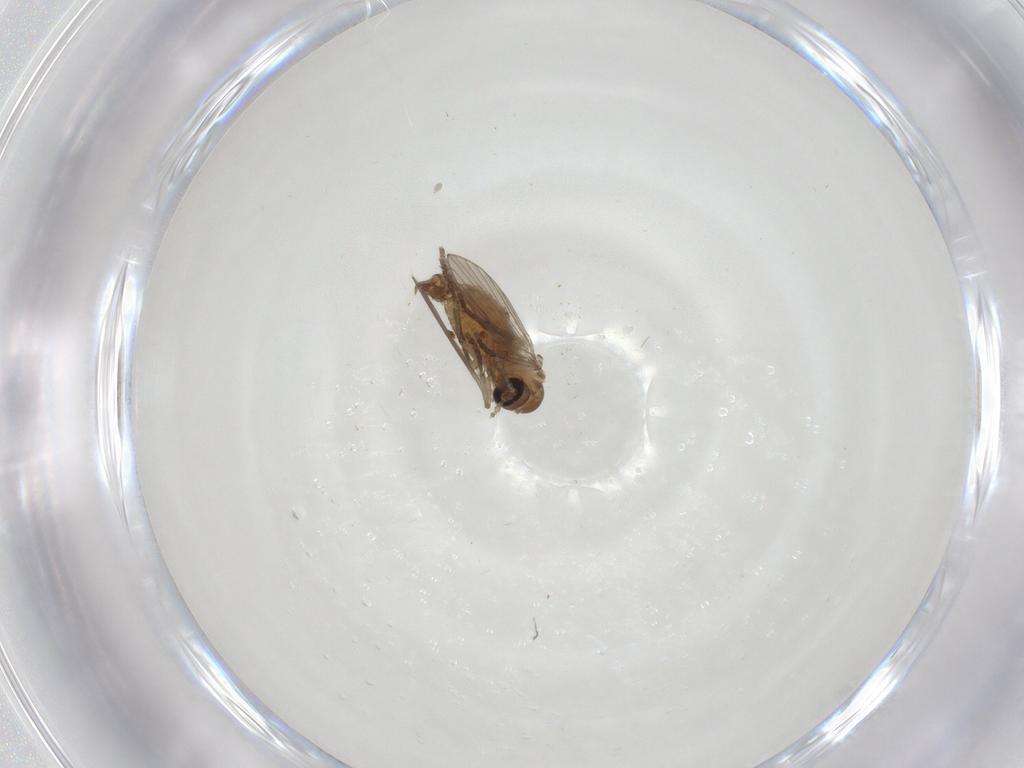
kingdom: Animalia
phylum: Arthropoda
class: Insecta
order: Diptera
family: Psychodidae
